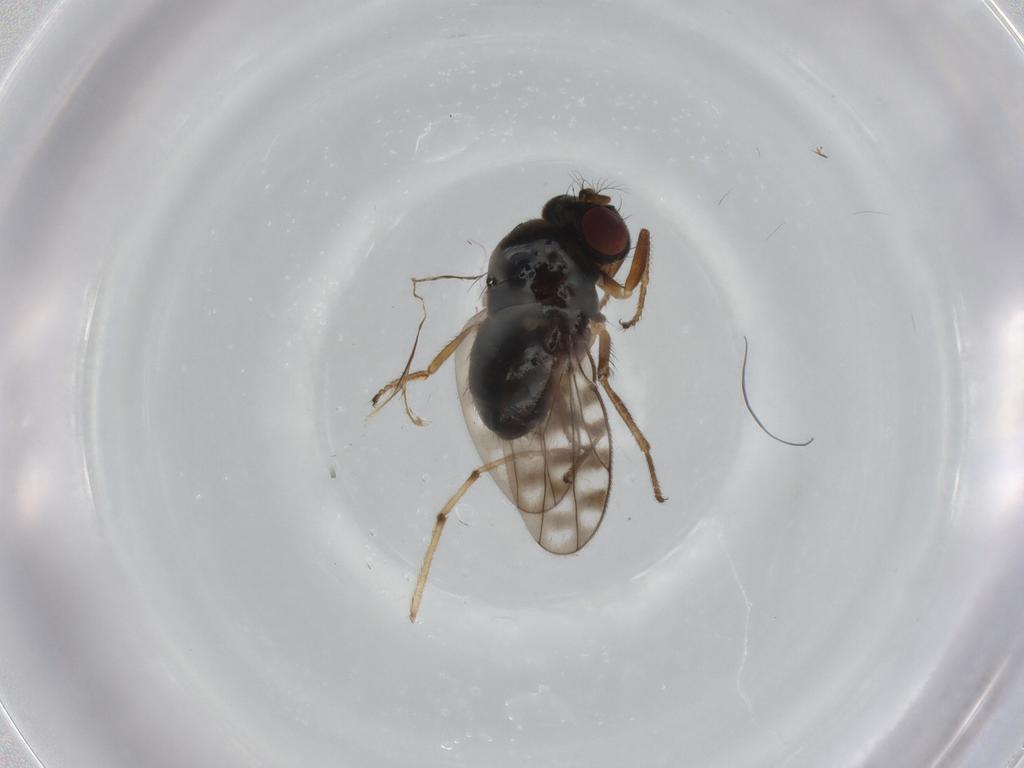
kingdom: Animalia
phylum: Arthropoda
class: Insecta
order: Diptera
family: Ephydridae
